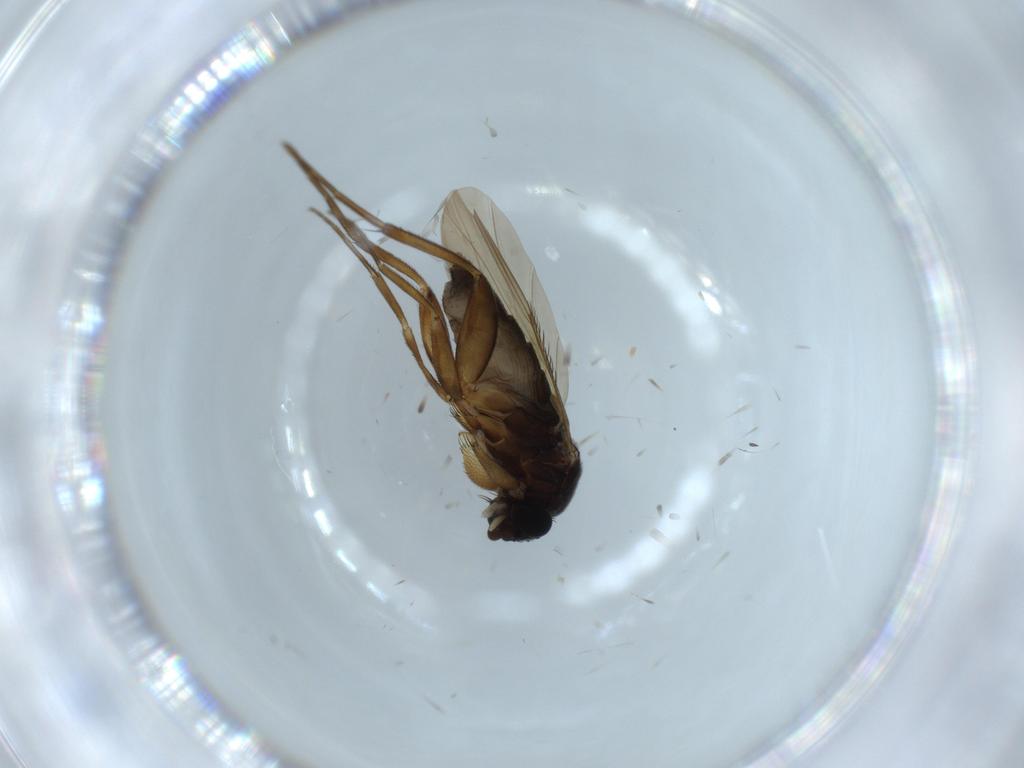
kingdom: Animalia
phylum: Arthropoda
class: Insecta
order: Diptera
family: Phoridae
